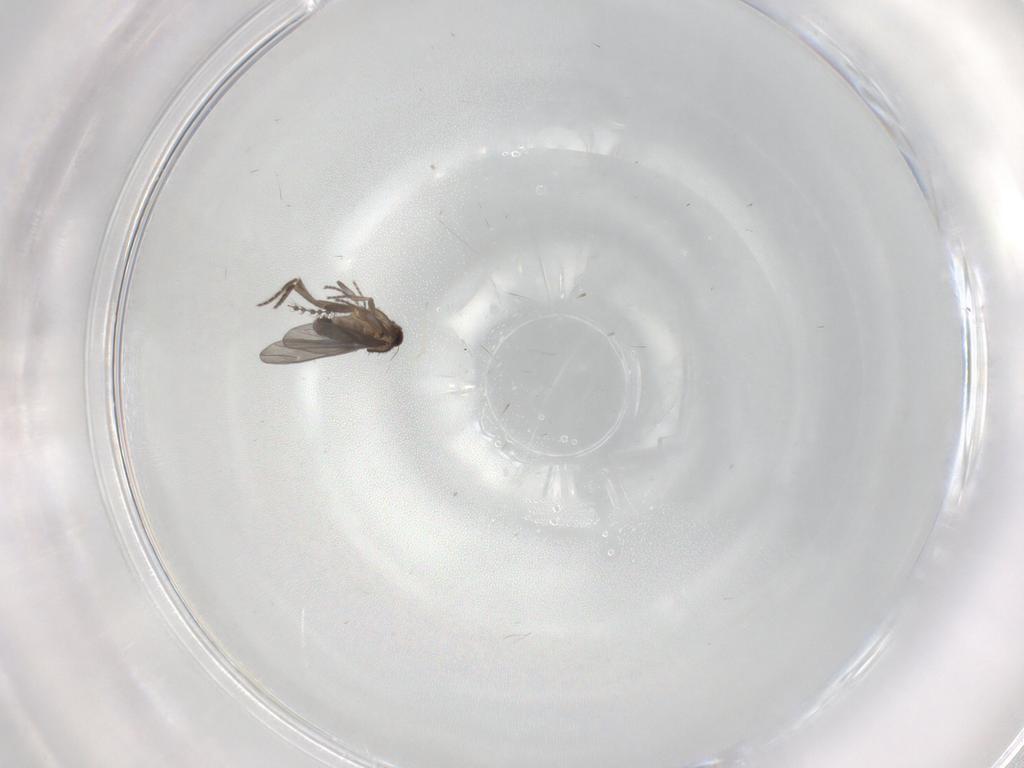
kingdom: Animalia
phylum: Arthropoda
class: Insecta
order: Diptera
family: Phoridae
